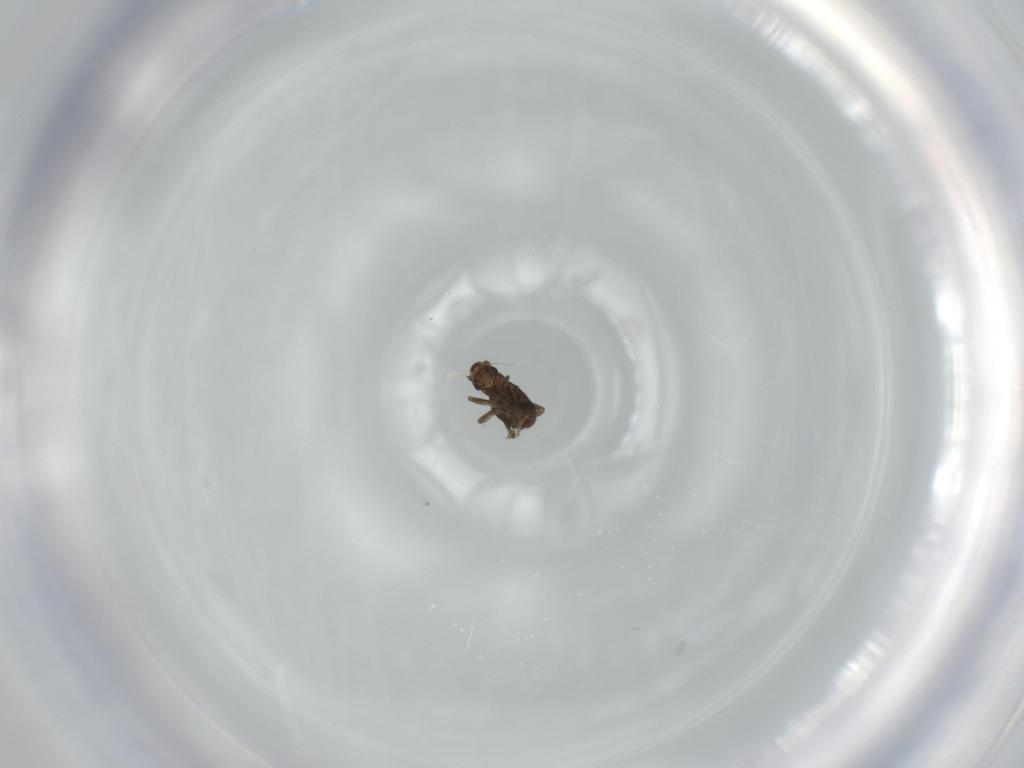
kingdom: Animalia
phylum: Arthropoda
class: Insecta
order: Diptera
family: Phoridae
